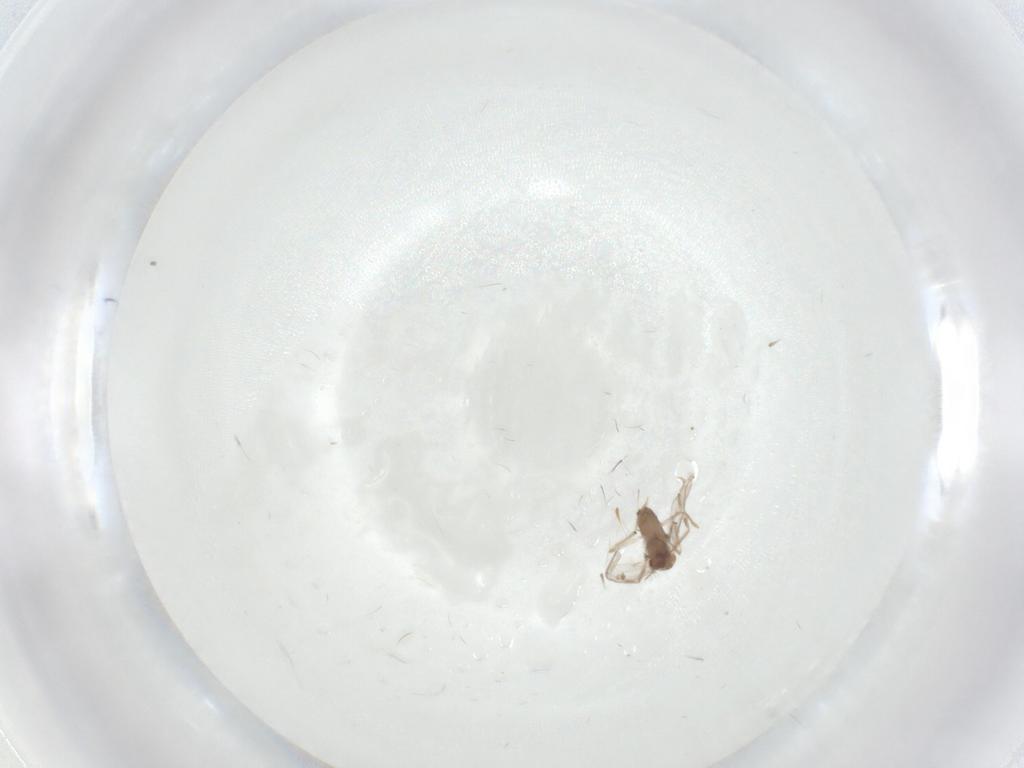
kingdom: Animalia
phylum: Arthropoda
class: Insecta
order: Diptera
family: Chironomidae
